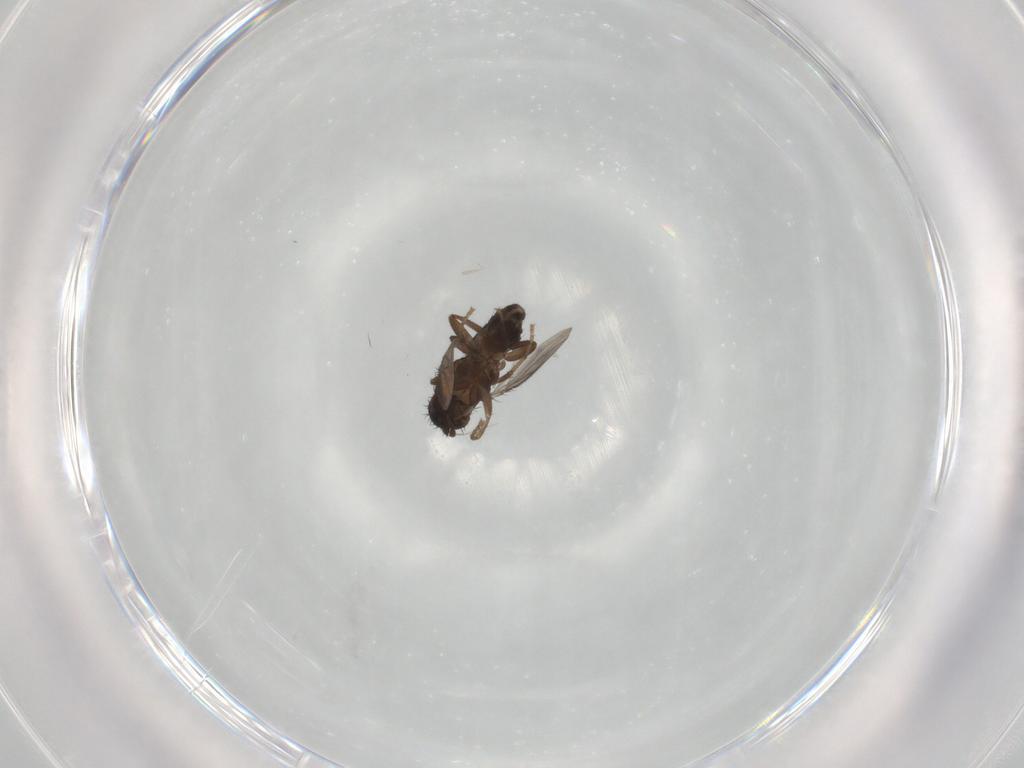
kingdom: Animalia
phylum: Arthropoda
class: Insecta
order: Diptera
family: Sphaeroceridae
